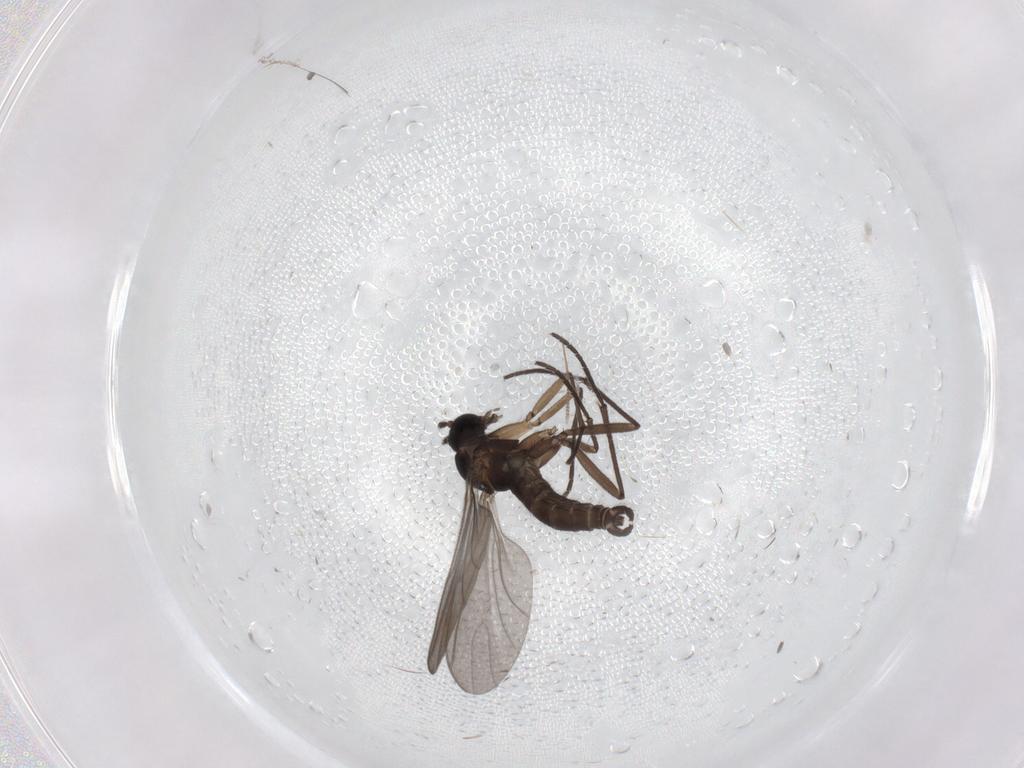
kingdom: Animalia
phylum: Arthropoda
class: Insecta
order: Diptera
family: Sciaridae
